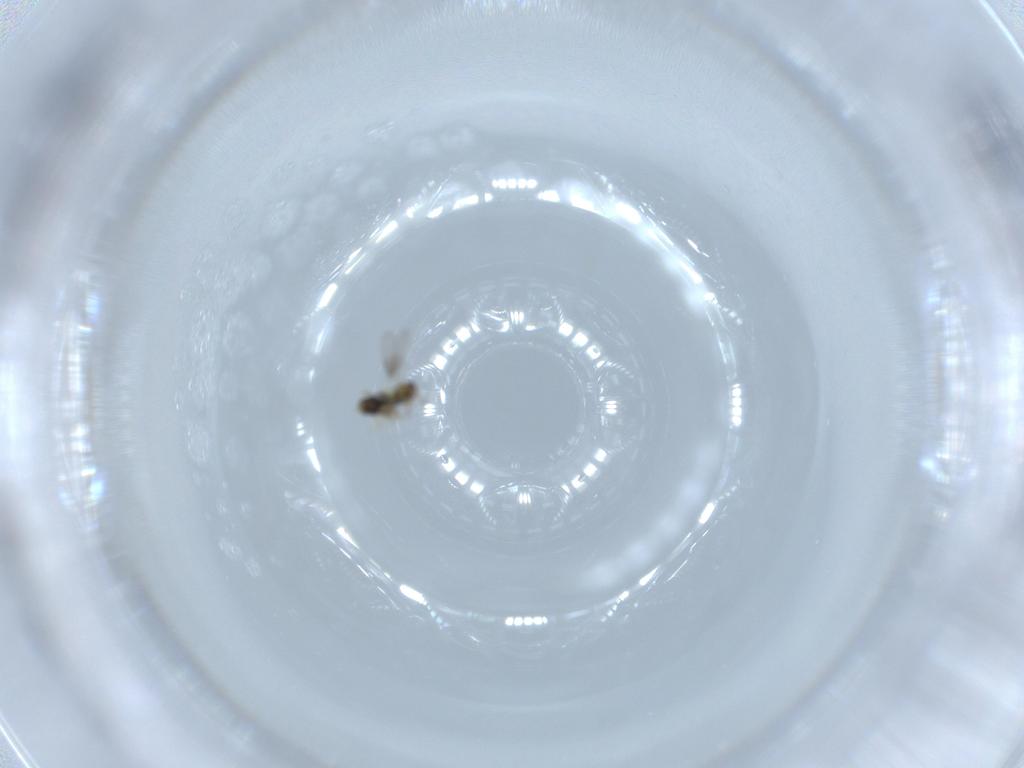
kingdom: Animalia
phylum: Arthropoda
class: Insecta
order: Hymenoptera
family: Aphelinidae
